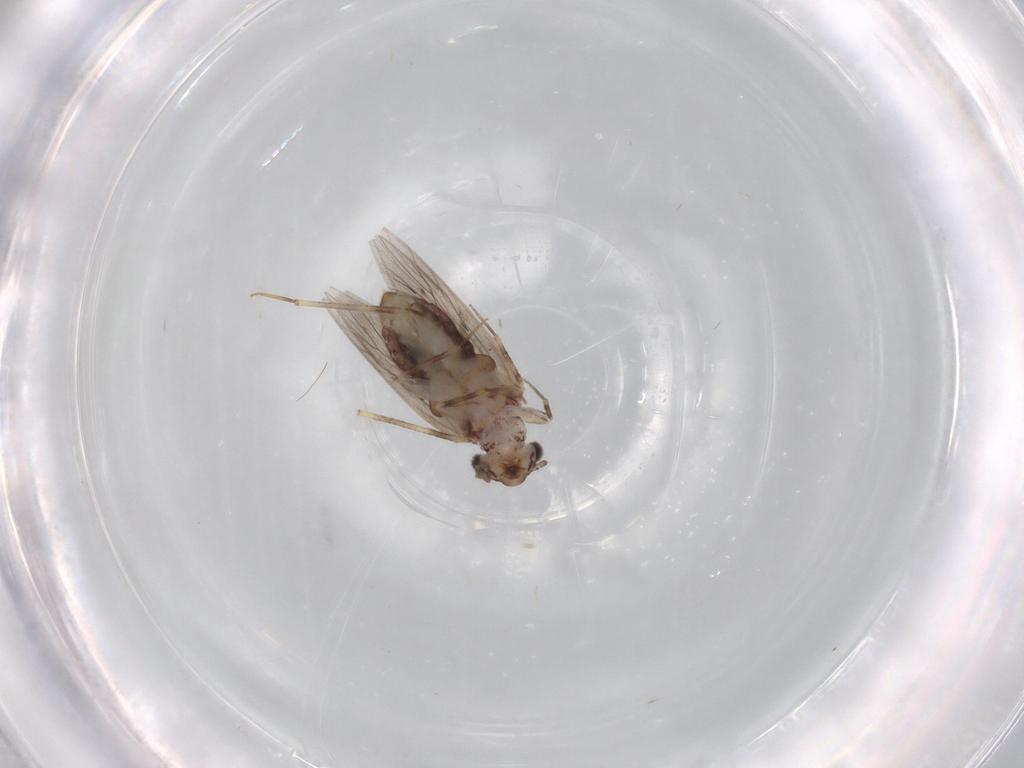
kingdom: Animalia
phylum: Arthropoda
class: Insecta
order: Psocodea
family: Lepidopsocidae
